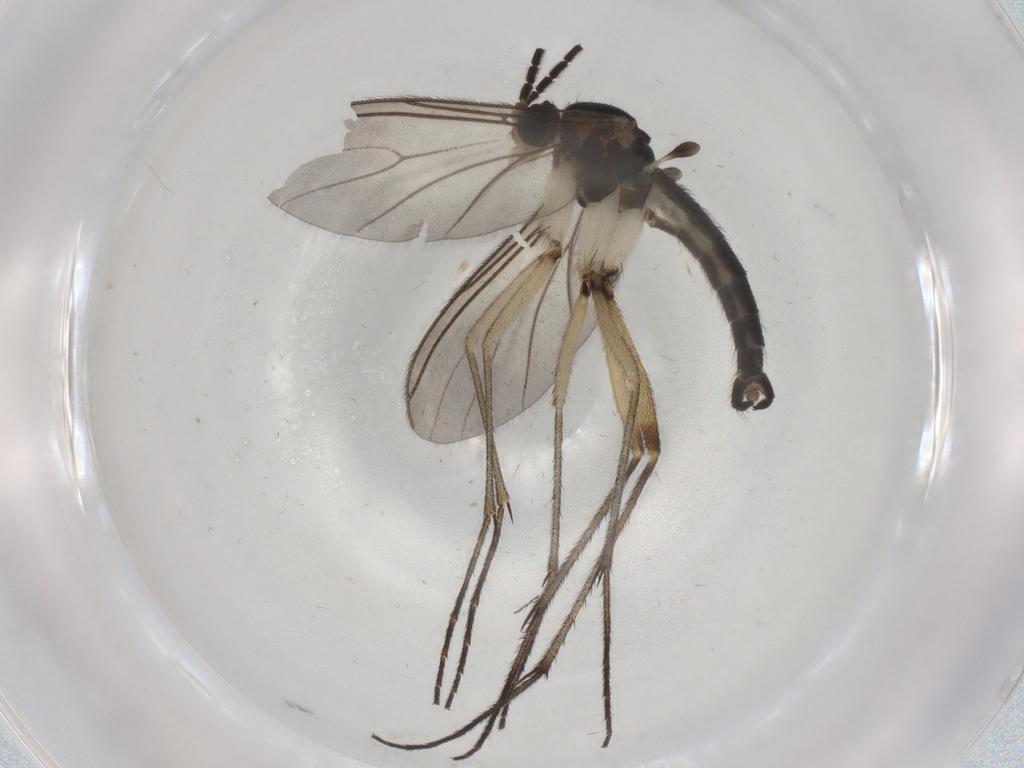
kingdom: Animalia
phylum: Arthropoda
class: Insecta
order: Diptera
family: Sciaridae
